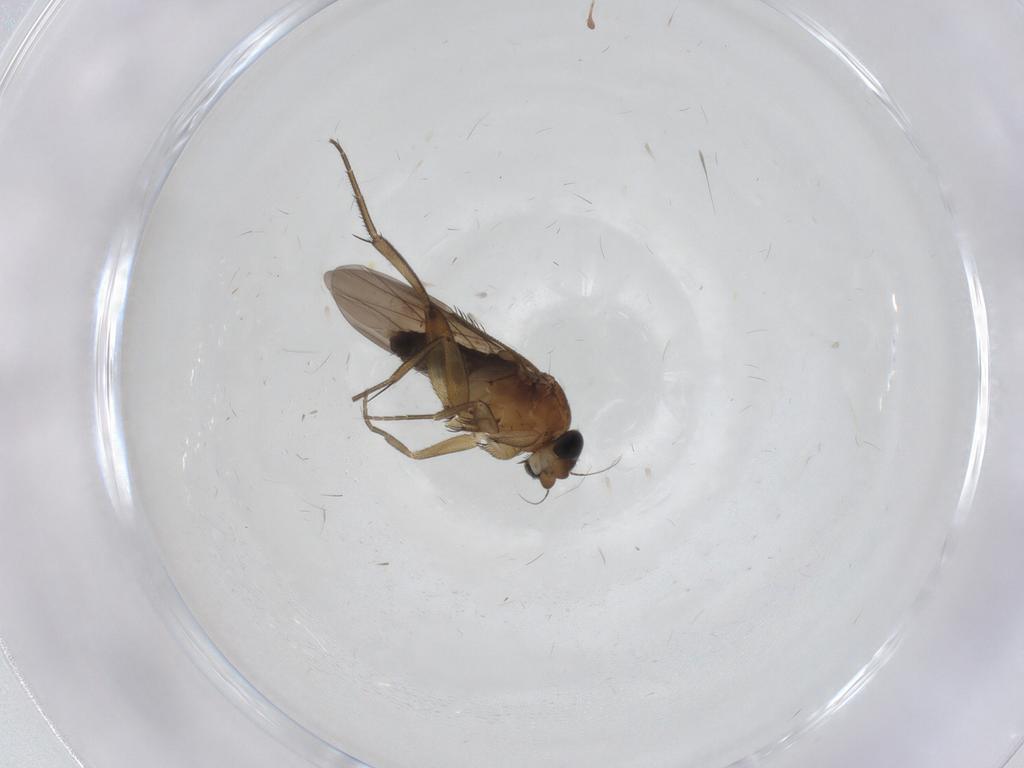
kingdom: Animalia
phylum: Arthropoda
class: Insecta
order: Diptera
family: Phoridae
